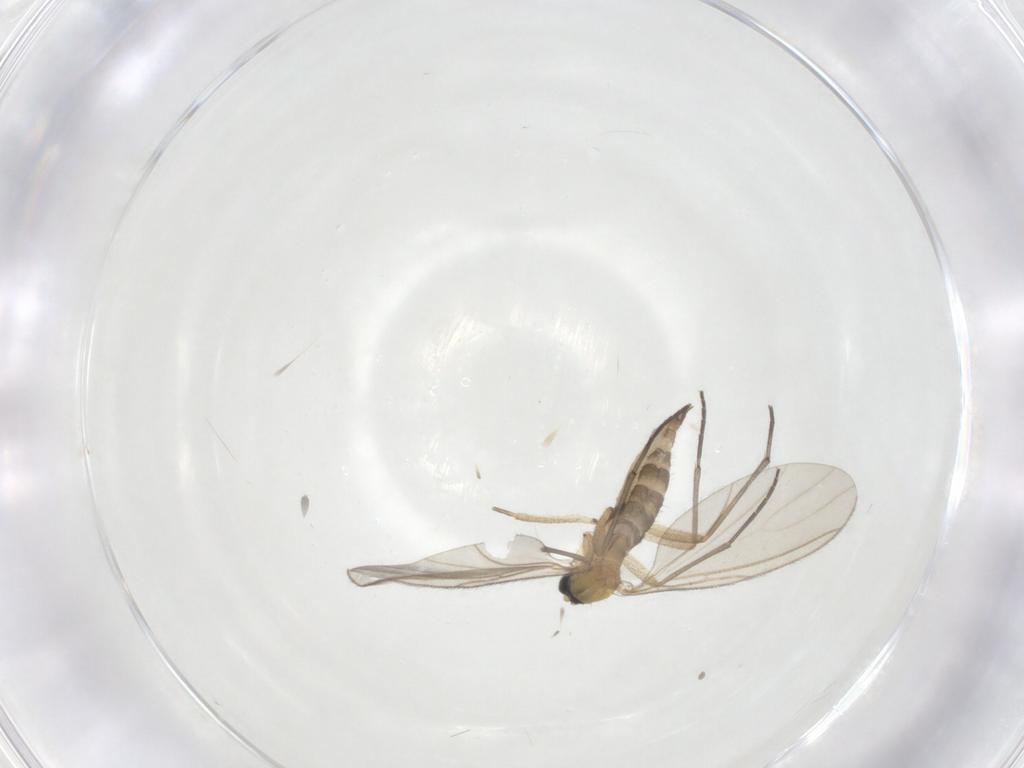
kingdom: Animalia
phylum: Arthropoda
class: Insecta
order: Diptera
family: Sciaridae
